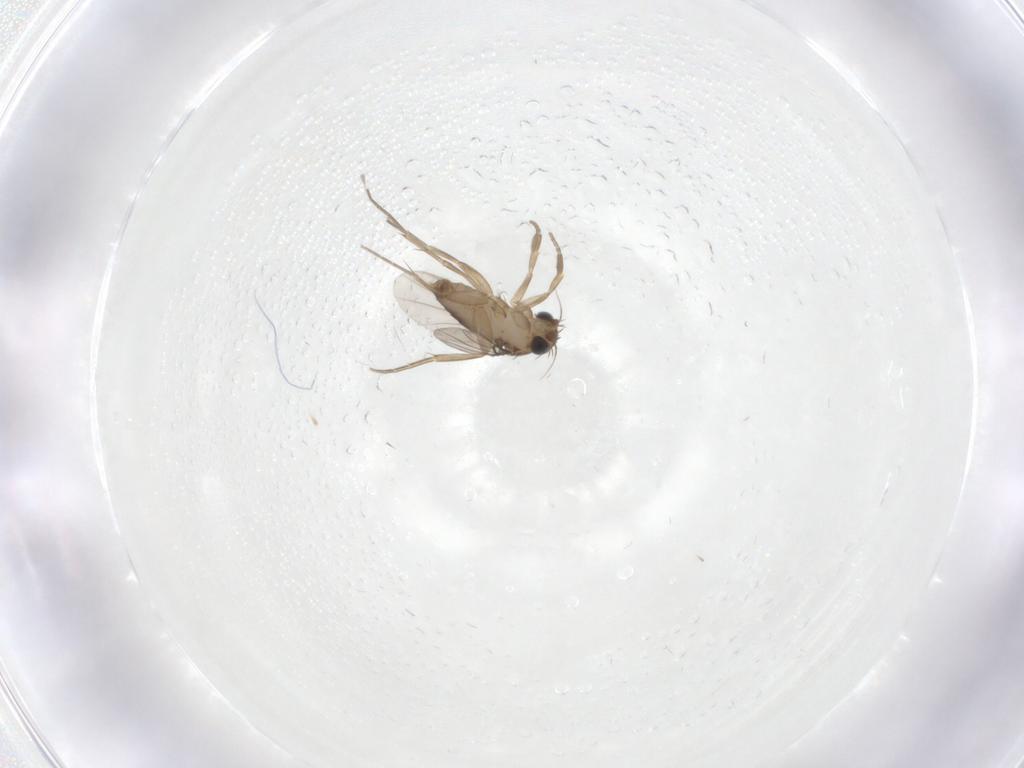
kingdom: Animalia
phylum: Arthropoda
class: Insecta
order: Diptera
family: Phoridae
